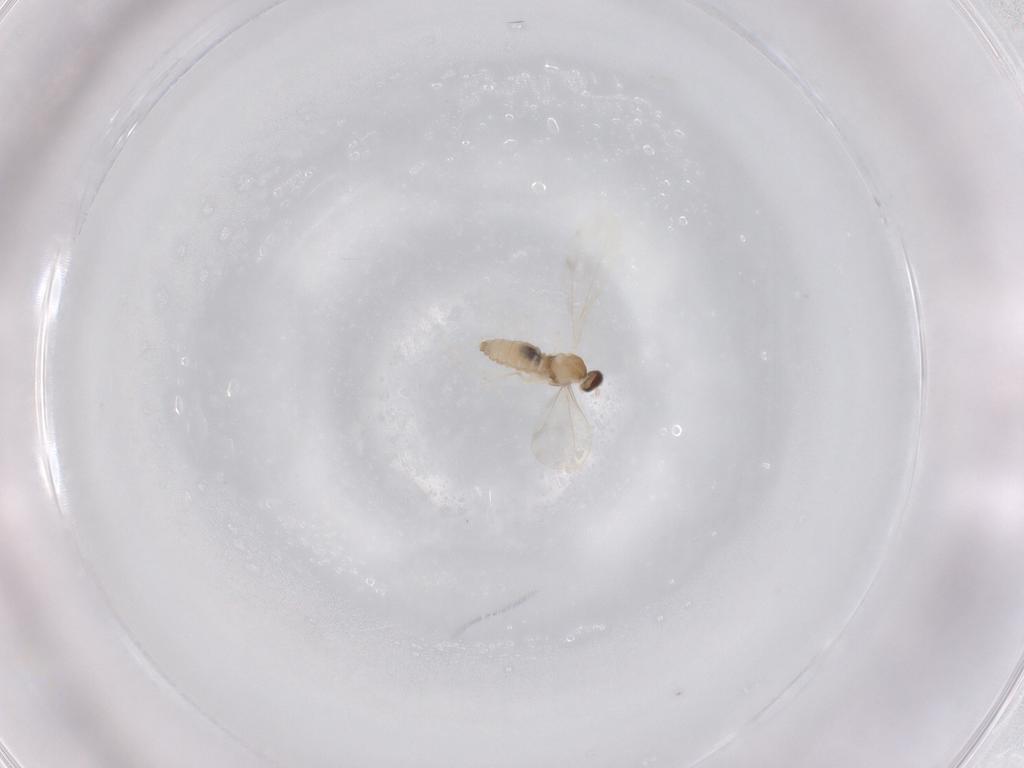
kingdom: Animalia
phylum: Arthropoda
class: Insecta
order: Diptera
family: Cecidomyiidae
